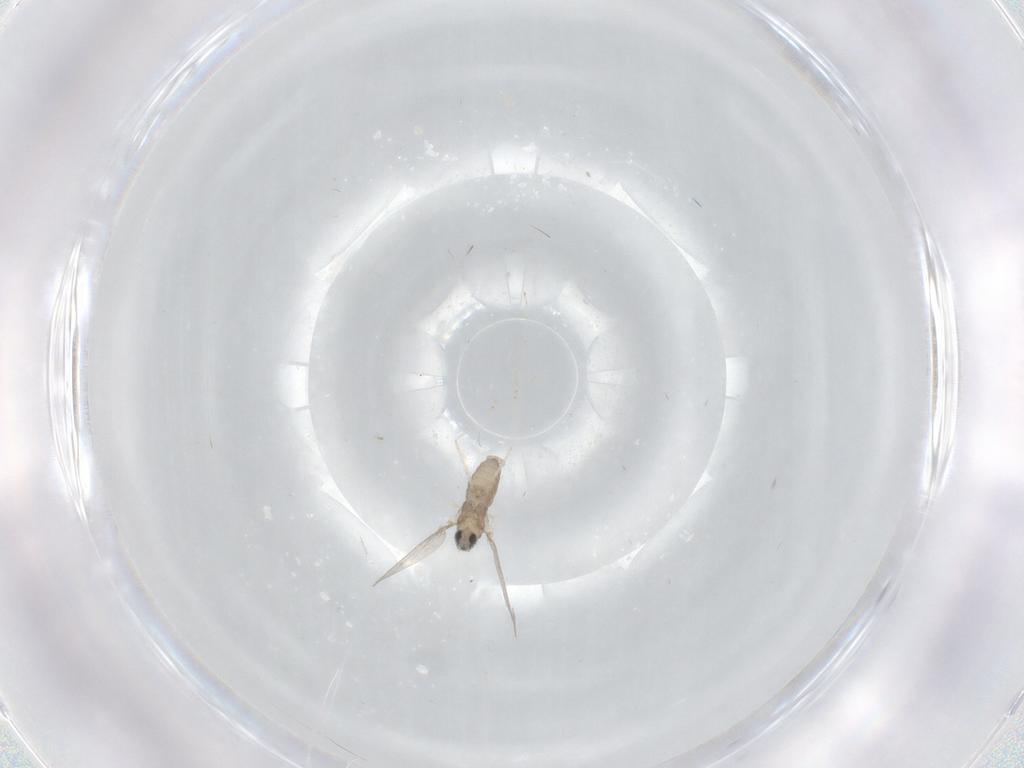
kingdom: Animalia
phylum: Arthropoda
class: Insecta
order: Diptera
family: Cecidomyiidae
